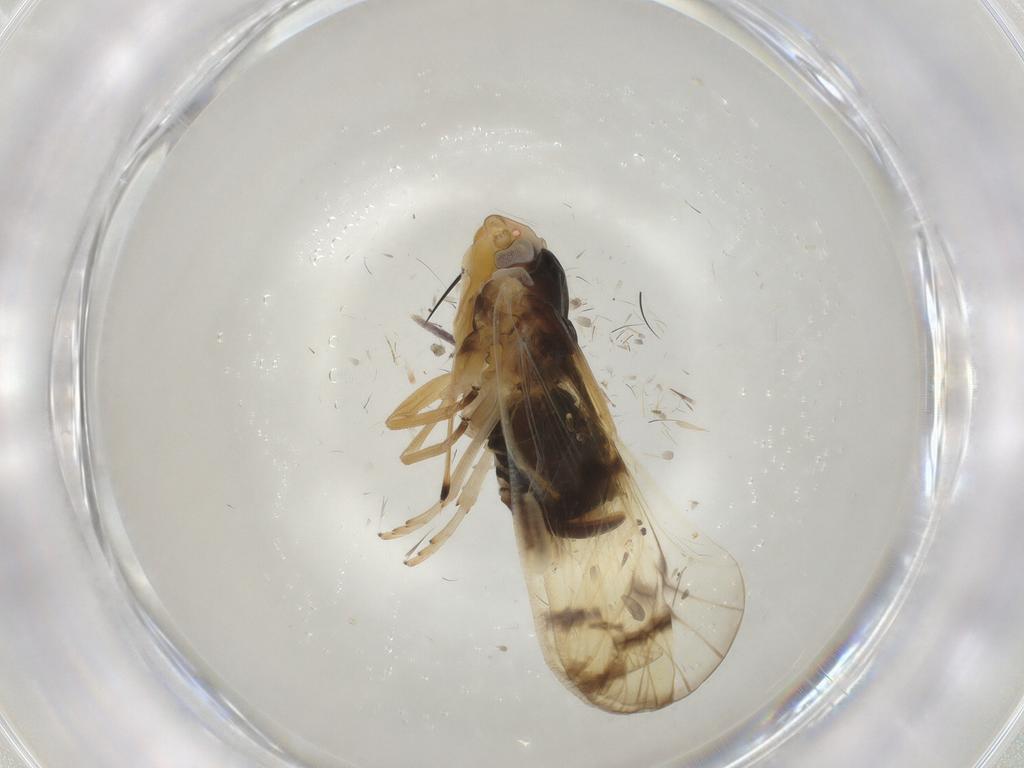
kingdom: Animalia
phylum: Arthropoda
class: Insecta
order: Hemiptera
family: Cixiidae
